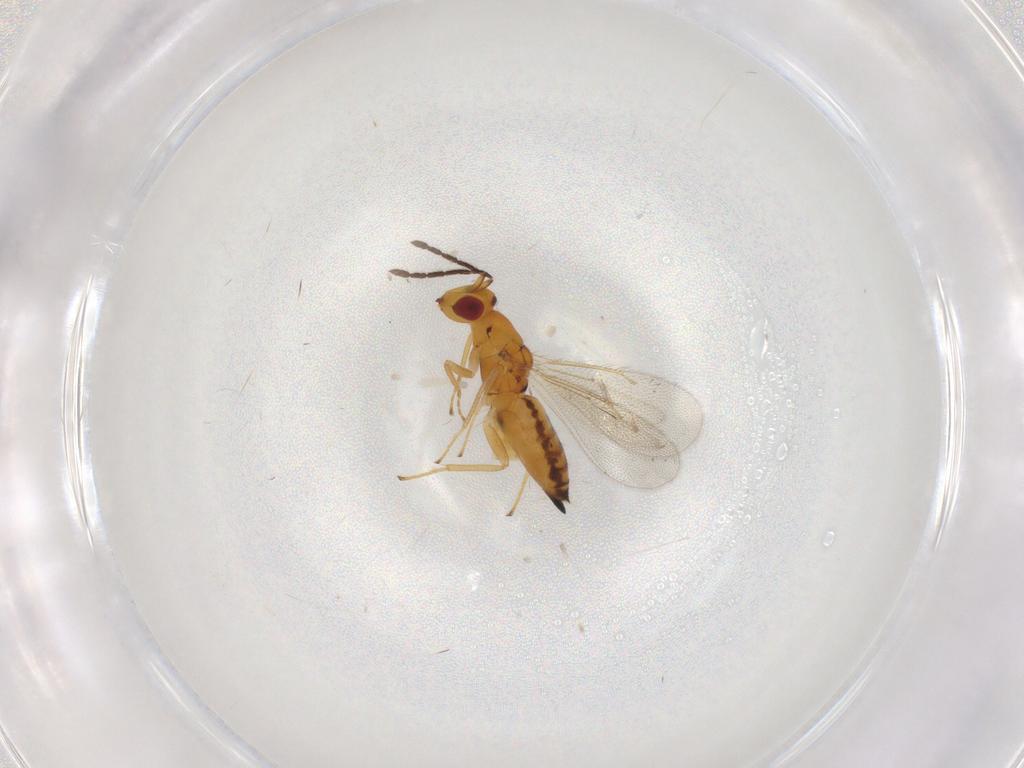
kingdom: Animalia
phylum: Arthropoda
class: Insecta
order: Hymenoptera
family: Eulophidae
